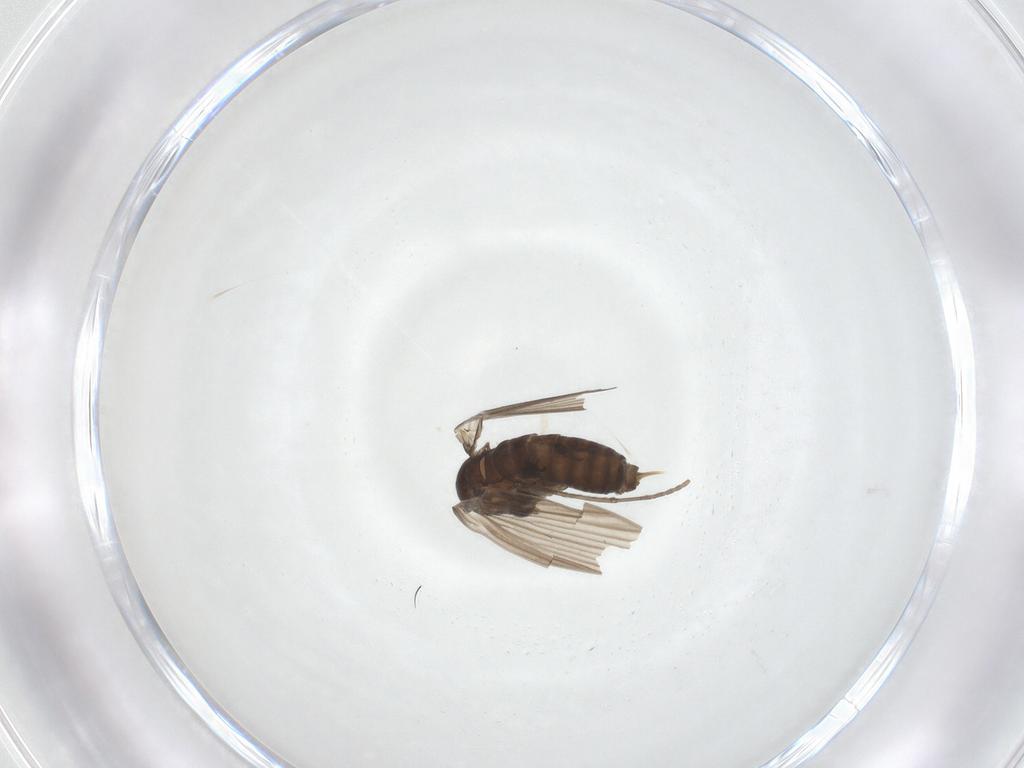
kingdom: Animalia
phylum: Arthropoda
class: Insecta
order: Diptera
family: Psychodidae
